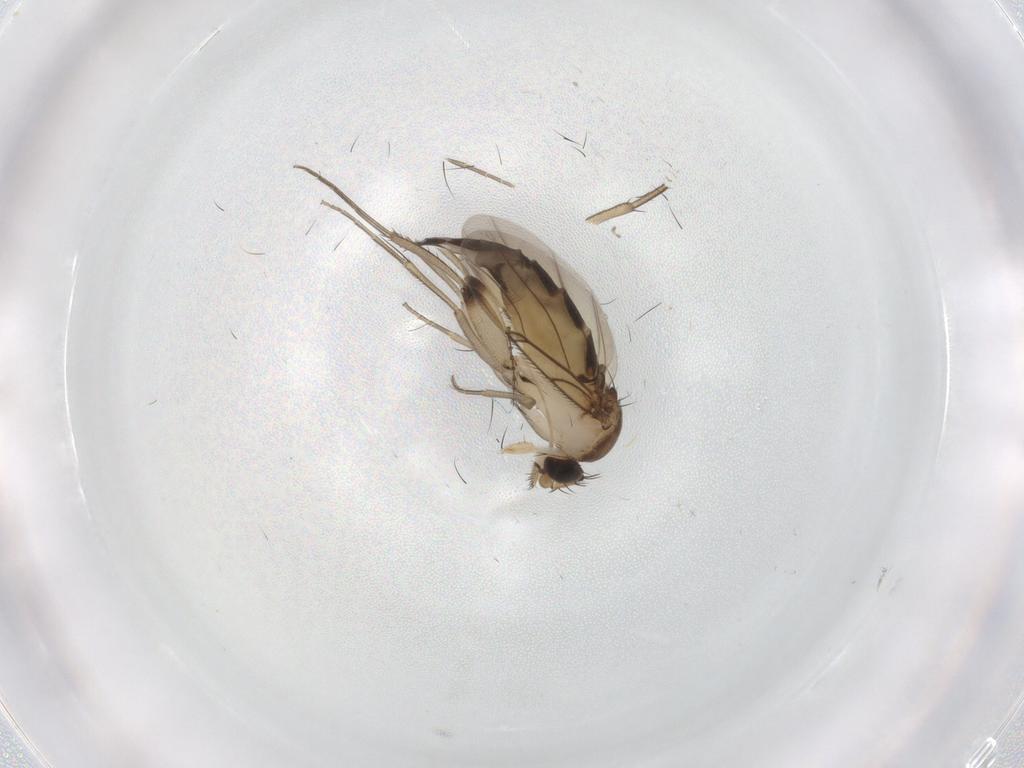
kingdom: Animalia
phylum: Arthropoda
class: Insecta
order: Diptera
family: Phoridae
